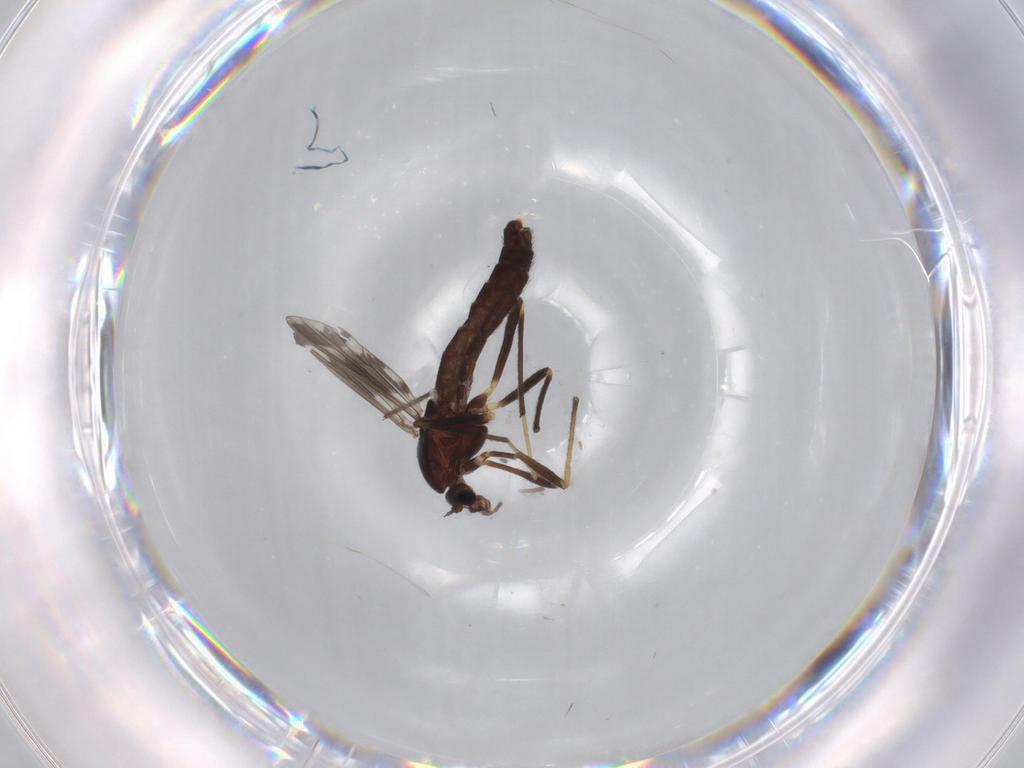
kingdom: Animalia
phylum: Arthropoda
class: Insecta
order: Diptera
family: Chironomidae
